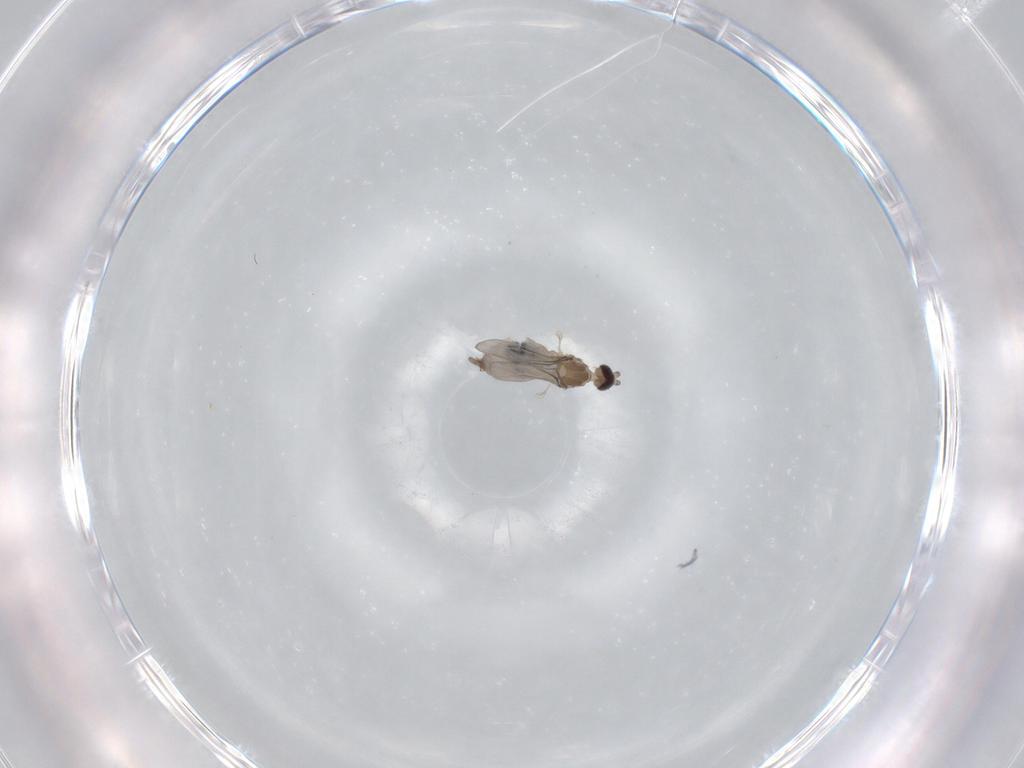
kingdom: Animalia
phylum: Arthropoda
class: Insecta
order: Diptera
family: Cecidomyiidae
